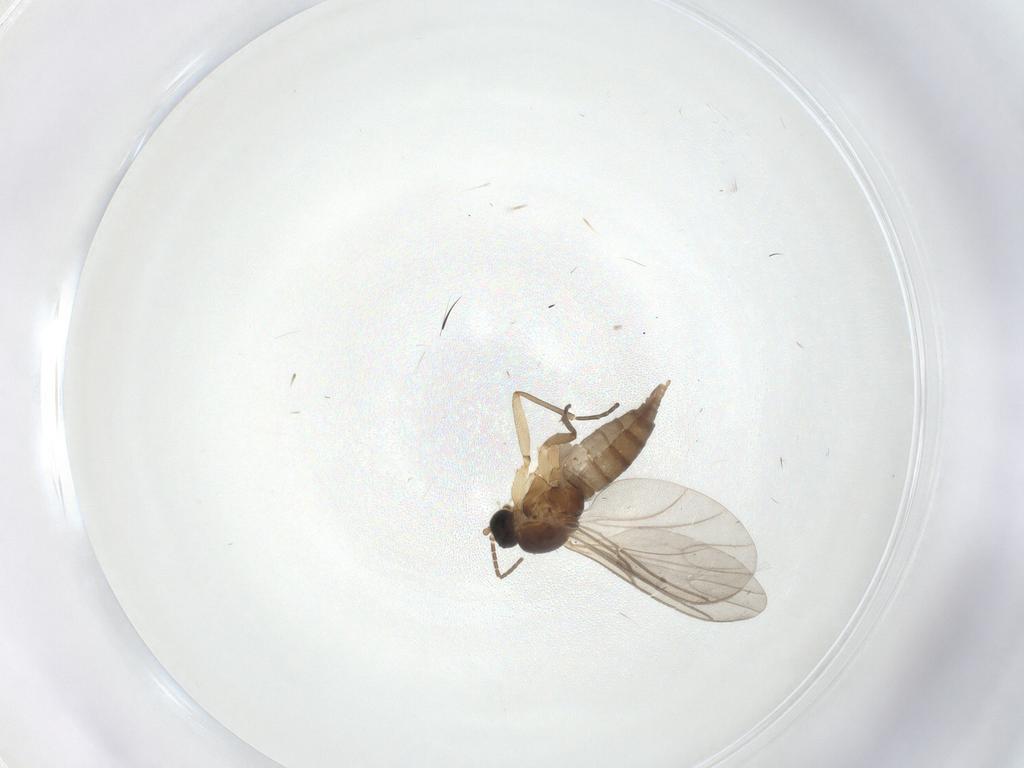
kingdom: Animalia
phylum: Arthropoda
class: Insecta
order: Diptera
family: Sciaridae
